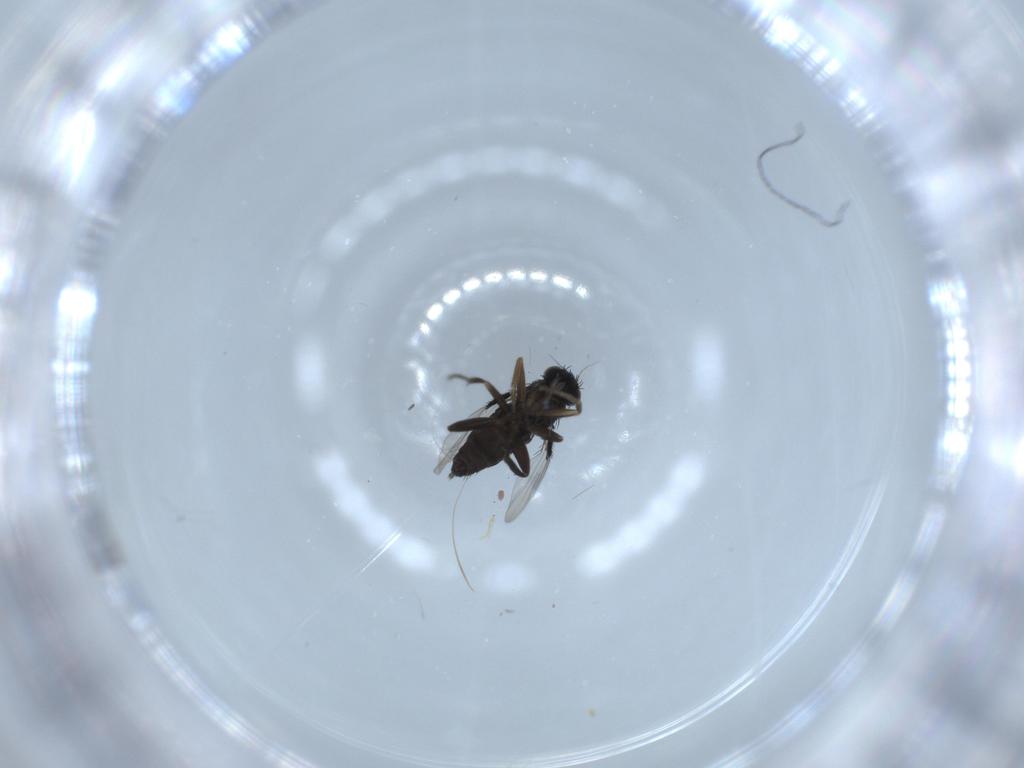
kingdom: Animalia
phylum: Arthropoda
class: Insecta
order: Diptera
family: Phoridae
